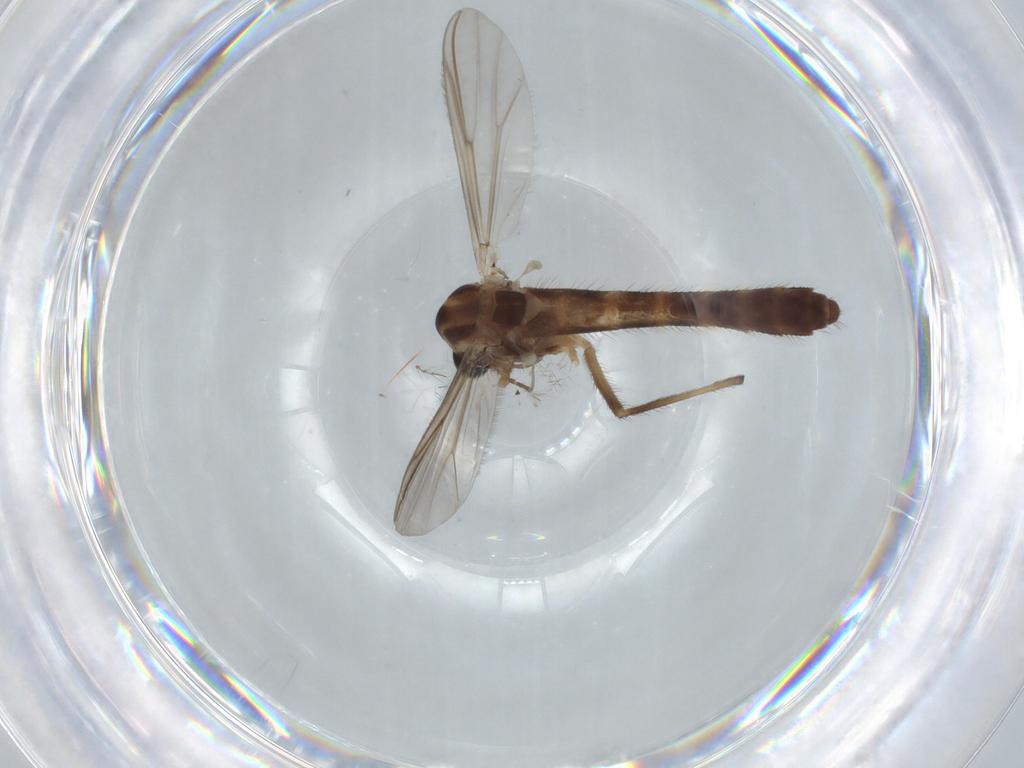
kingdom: Animalia
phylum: Arthropoda
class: Insecta
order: Diptera
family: Chironomidae
